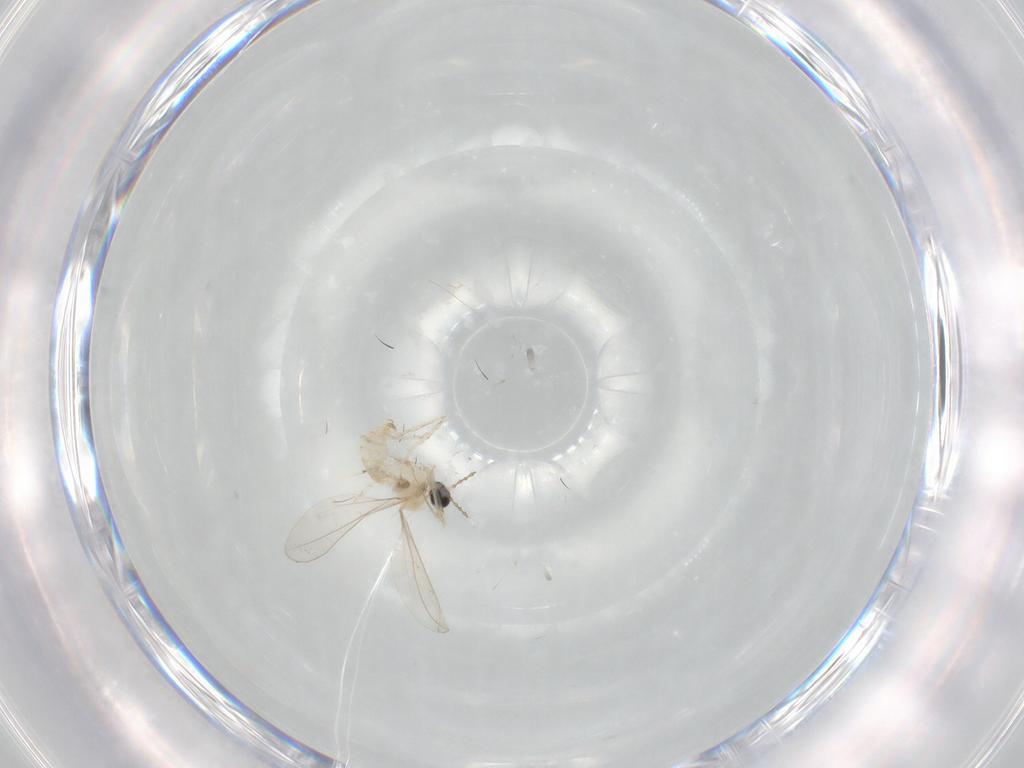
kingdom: Animalia
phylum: Arthropoda
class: Insecta
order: Diptera
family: Cecidomyiidae
